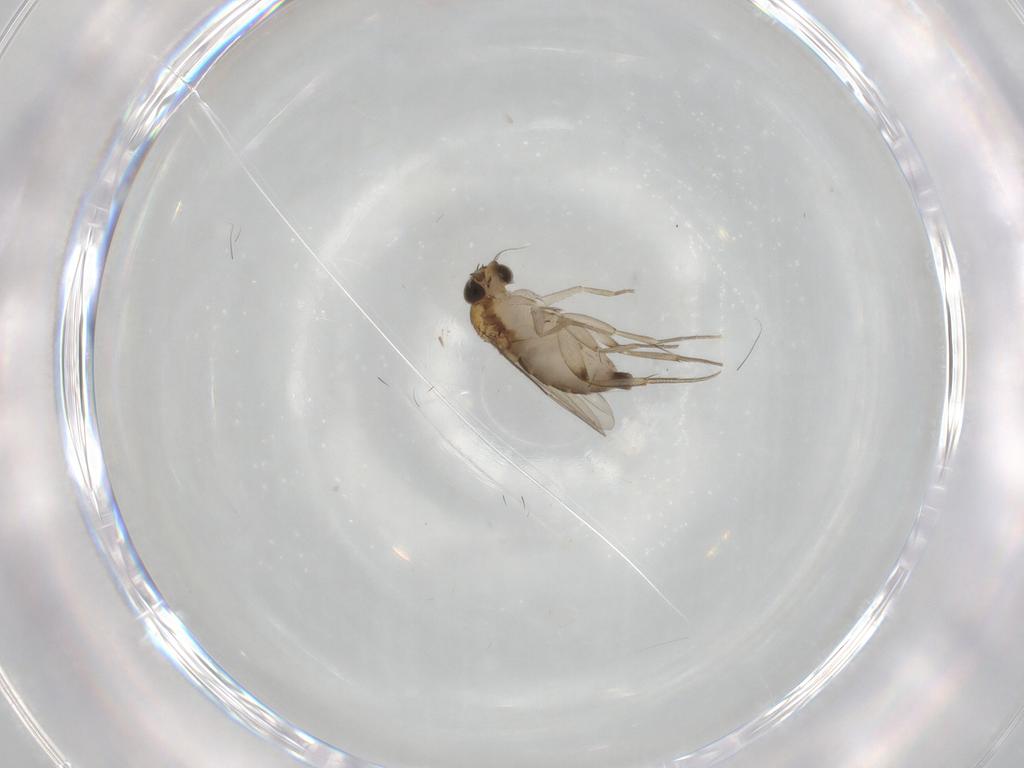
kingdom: Animalia
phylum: Arthropoda
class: Insecta
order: Diptera
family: Phoridae
